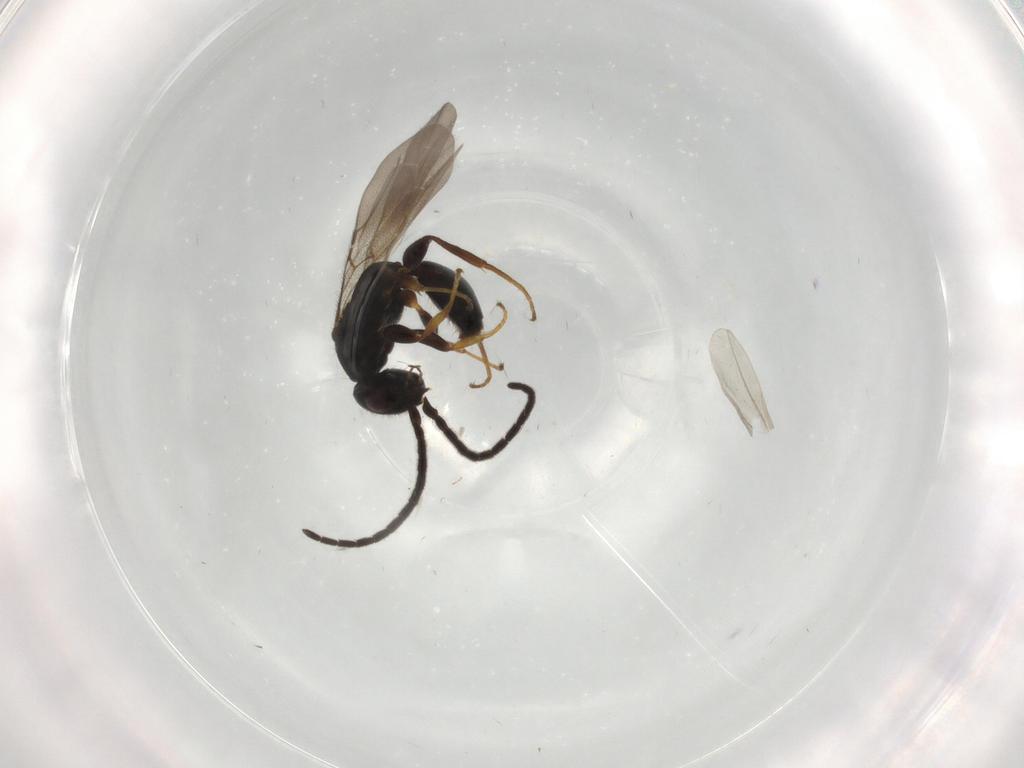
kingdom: Animalia
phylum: Arthropoda
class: Insecta
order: Hymenoptera
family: Bethylidae
